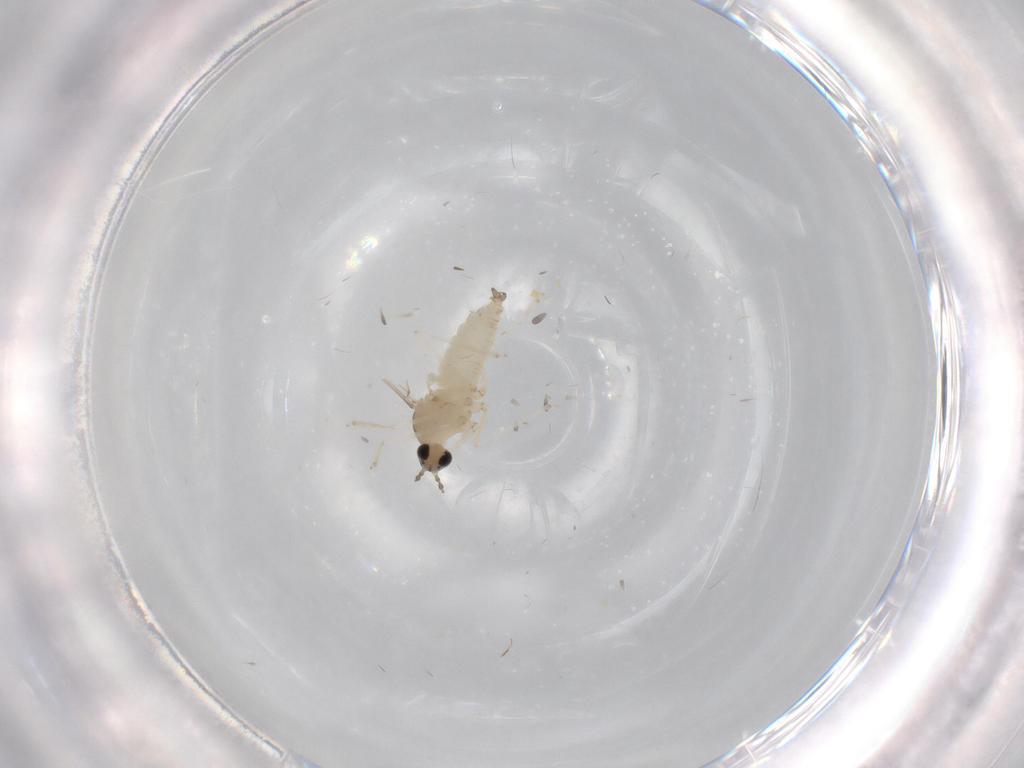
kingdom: Animalia
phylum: Arthropoda
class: Insecta
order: Diptera
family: Cecidomyiidae
